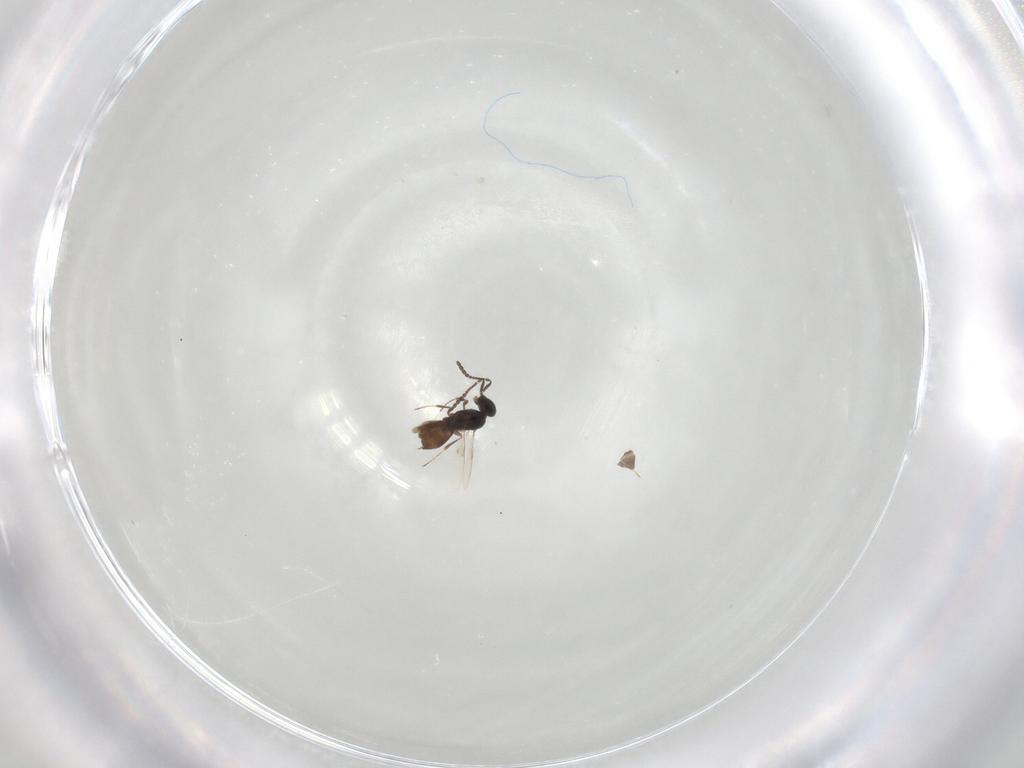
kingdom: Animalia
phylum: Arthropoda
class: Insecta
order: Hymenoptera
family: Scelionidae
